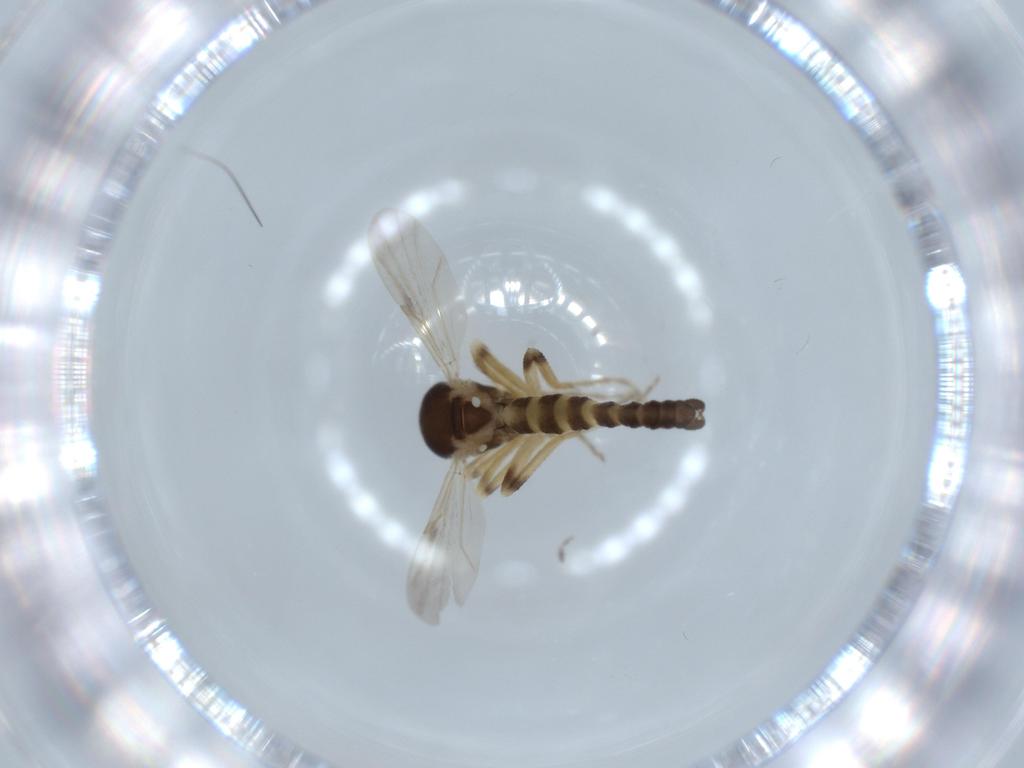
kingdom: Animalia
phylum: Arthropoda
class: Insecta
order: Diptera
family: Ceratopogonidae
